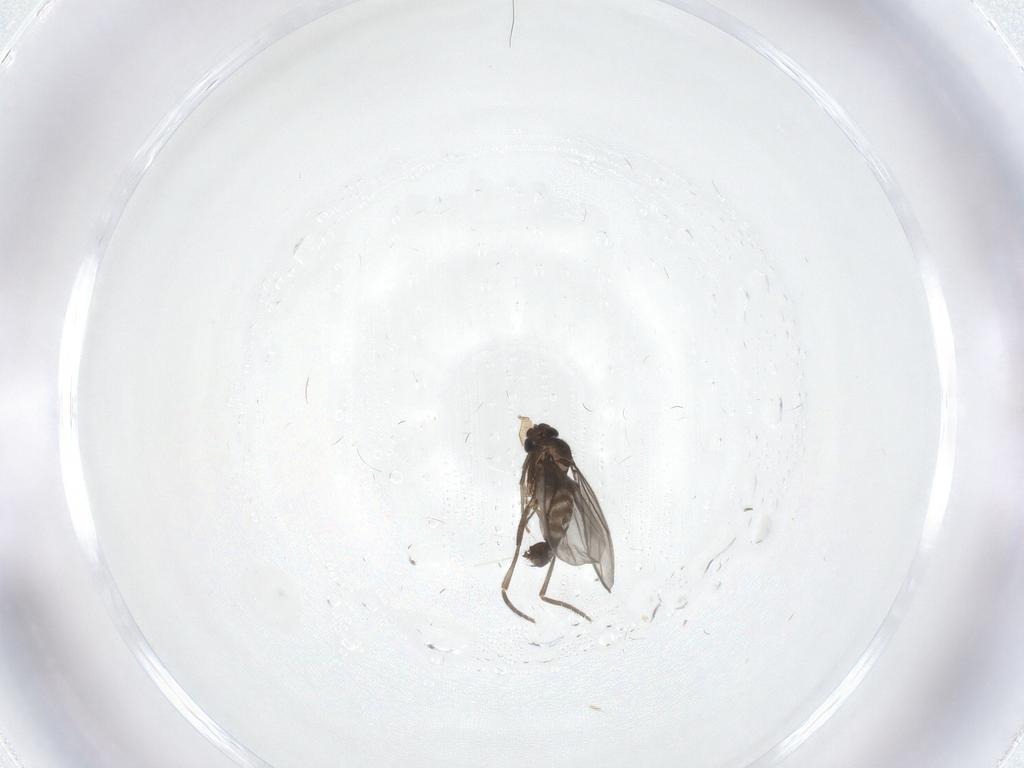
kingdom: Animalia
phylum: Arthropoda
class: Insecta
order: Diptera
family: Phoridae
